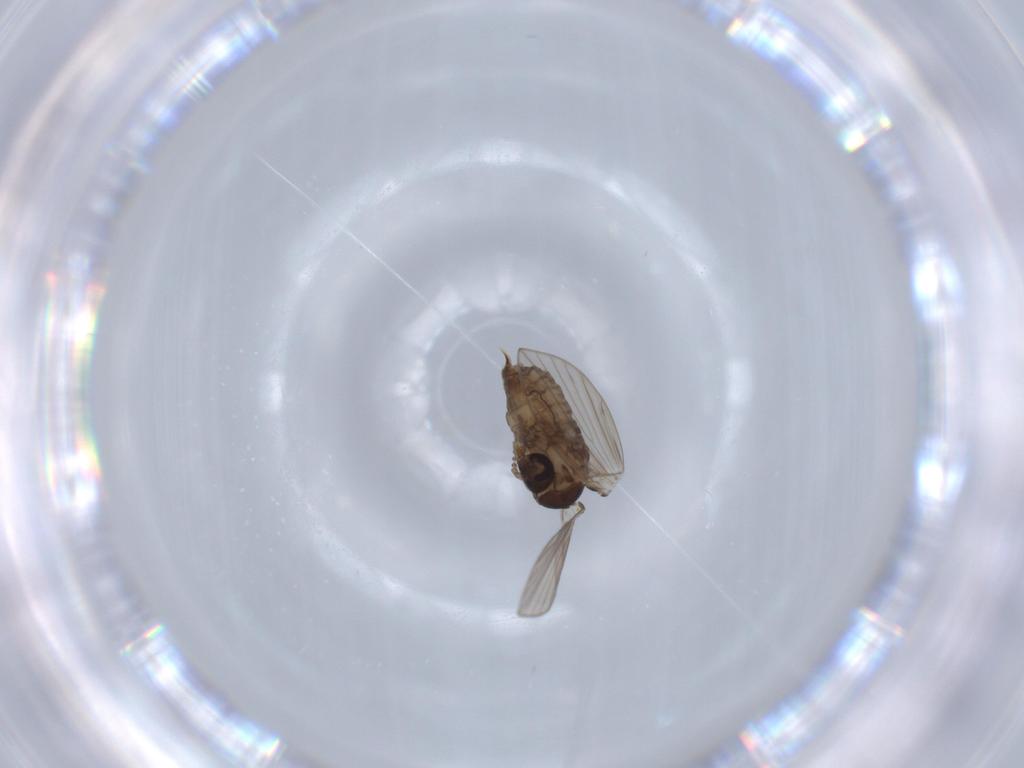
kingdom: Animalia
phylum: Arthropoda
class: Insecta
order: Diptera
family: Psychodidae
